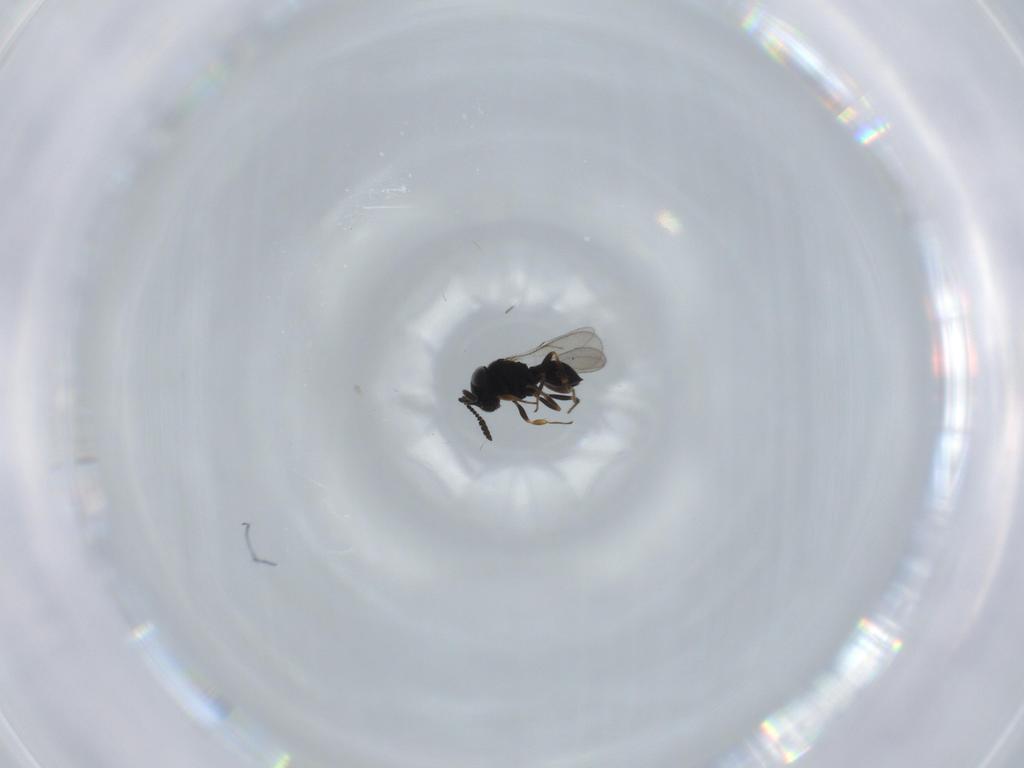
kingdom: Animalia
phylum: Arthropoda
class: Insecta
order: Hymenoptera
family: Scelionidae
